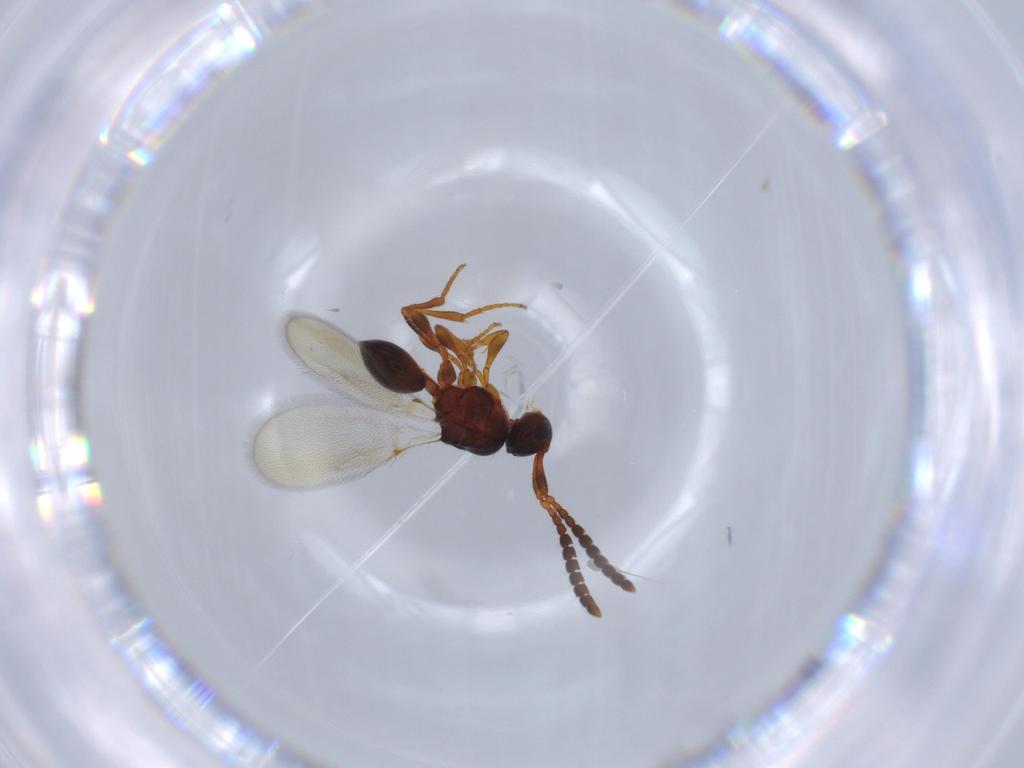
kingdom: Animalia
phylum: Arthropoda
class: Insecta
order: Hymenoptera
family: Diapriidae
